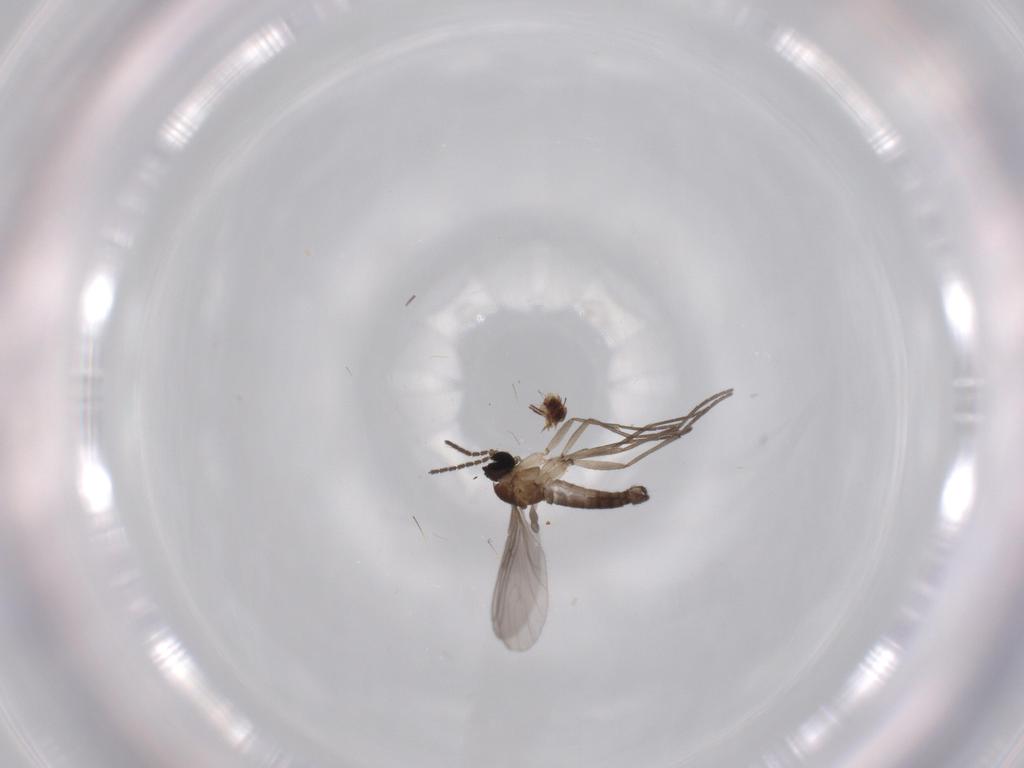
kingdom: Animalia
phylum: Arthropoda
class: Insecta
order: Diptera
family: Sciaridae
